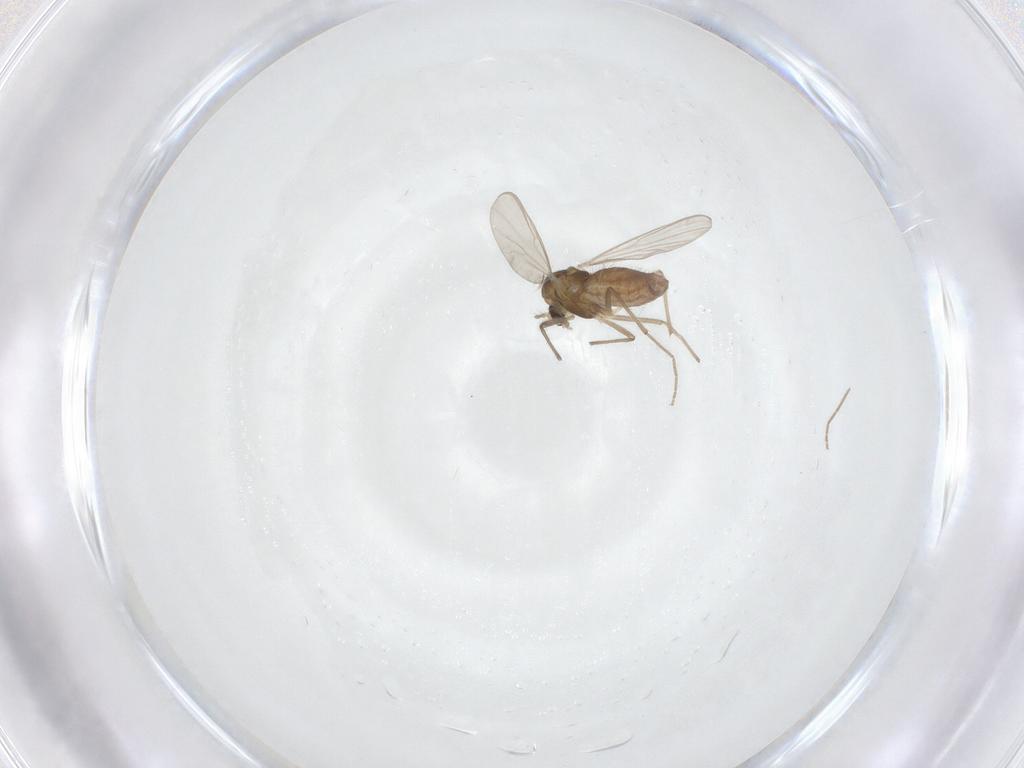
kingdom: Animalia
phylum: Arthropoda
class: Insecta
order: Diptera
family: Chironomidae
